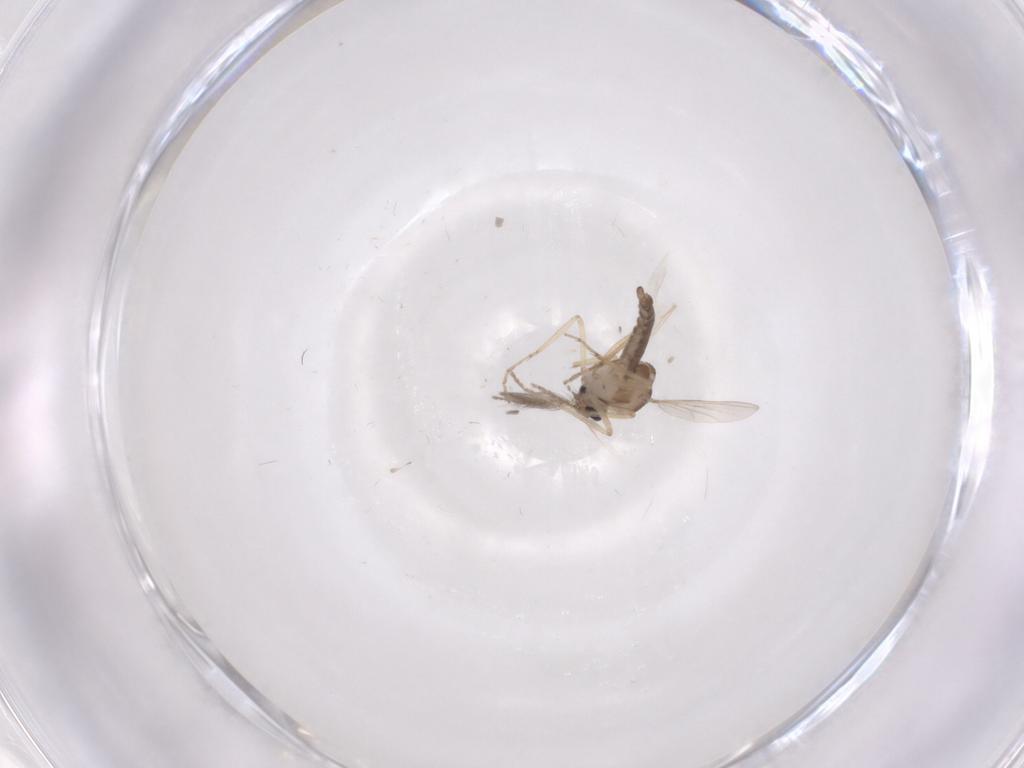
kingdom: Animalia
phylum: Arthropoda
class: Insecta
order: Diptera
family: Ceratopogonidae
